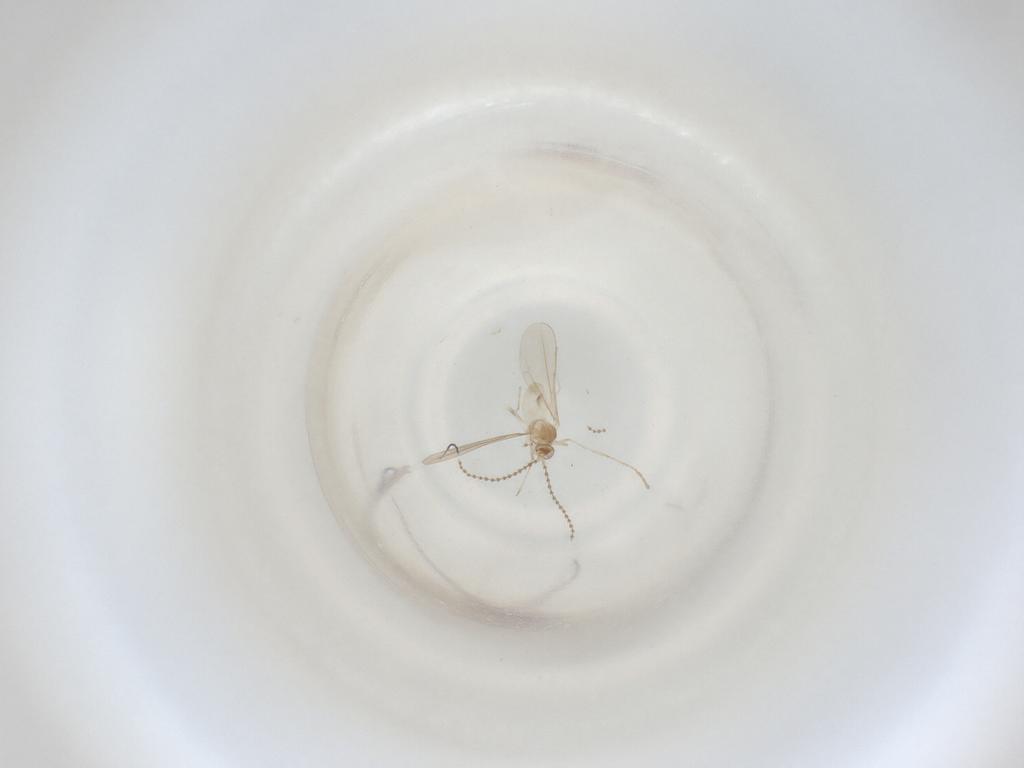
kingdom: Animalia
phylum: Arthropoda
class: Insecta
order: Diptera
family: Cecidomyiidae
